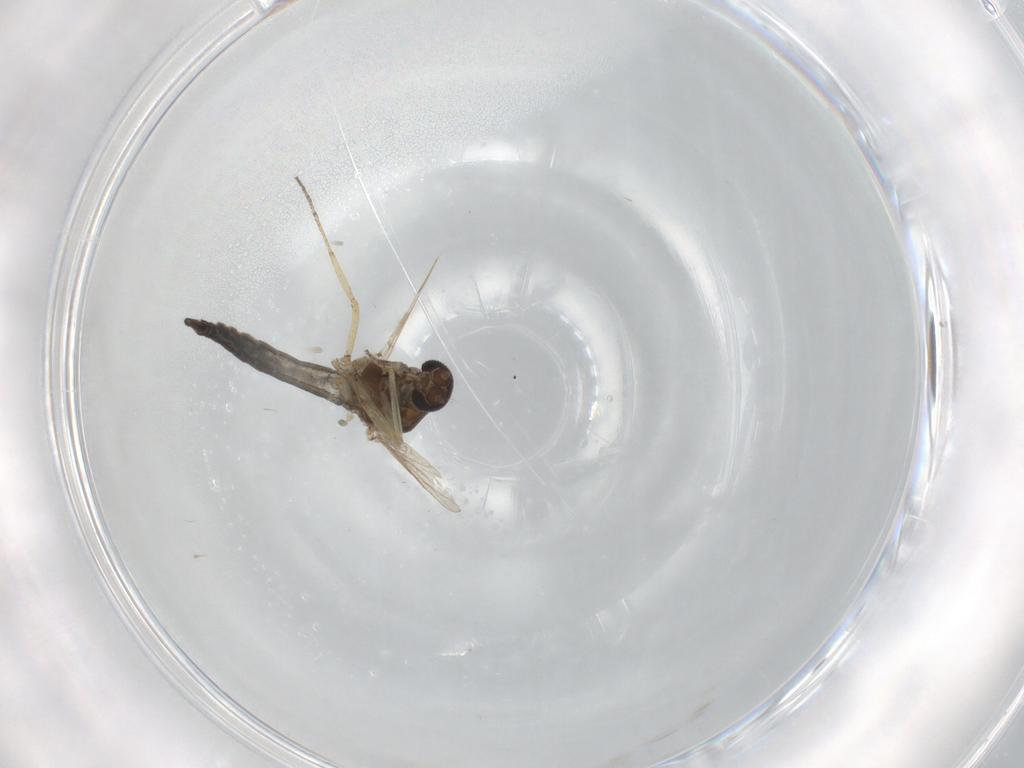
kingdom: Animalia
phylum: Arthropoda
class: Insecta
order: Diptera
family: Ceratopogonidae
